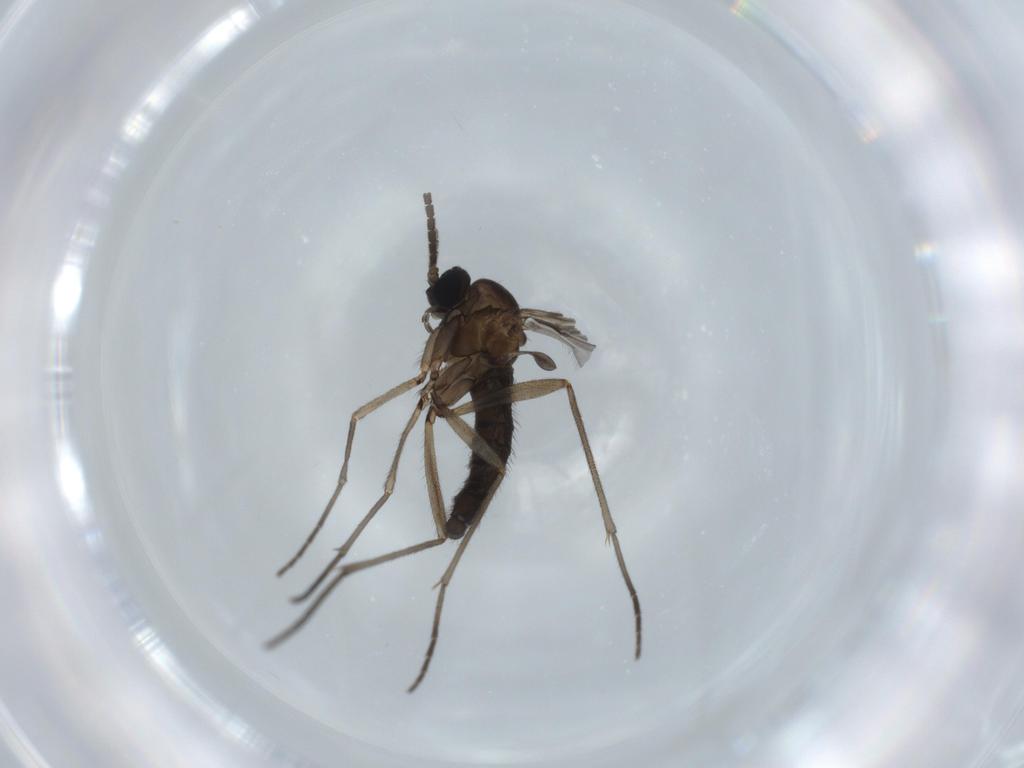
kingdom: Animalia
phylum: Arthropoda
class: Insecta
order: Diptera
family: Sciaridae
